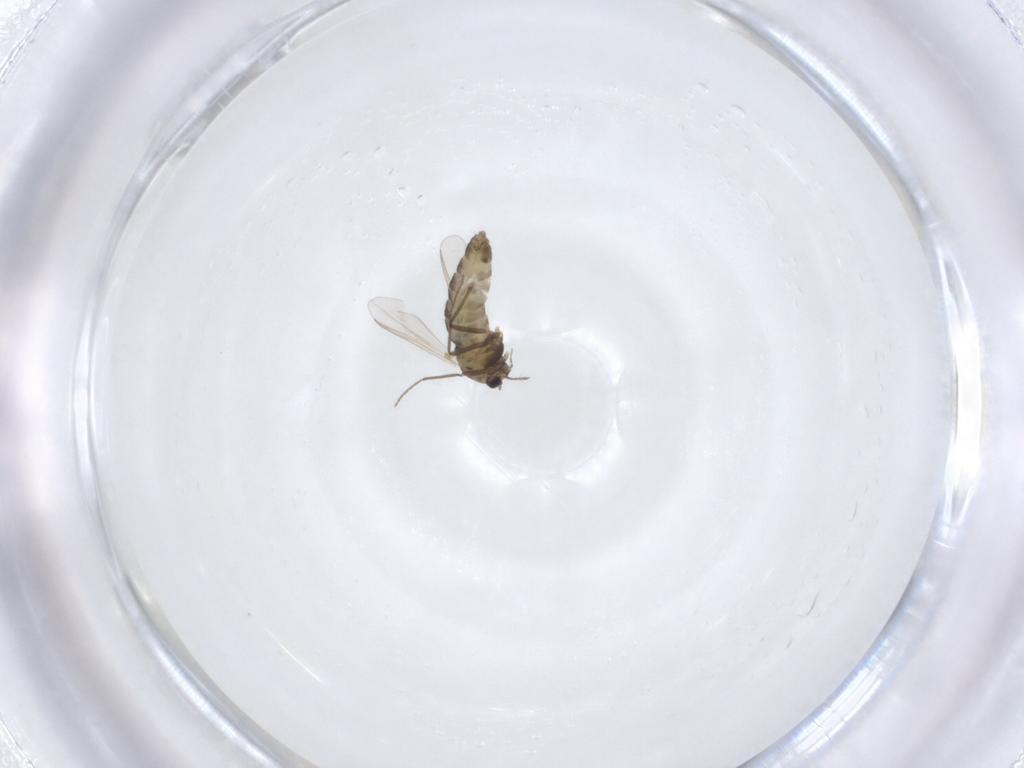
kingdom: Animalia
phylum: Arthropoda
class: Insecta
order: Diptera
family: Chironomidae
